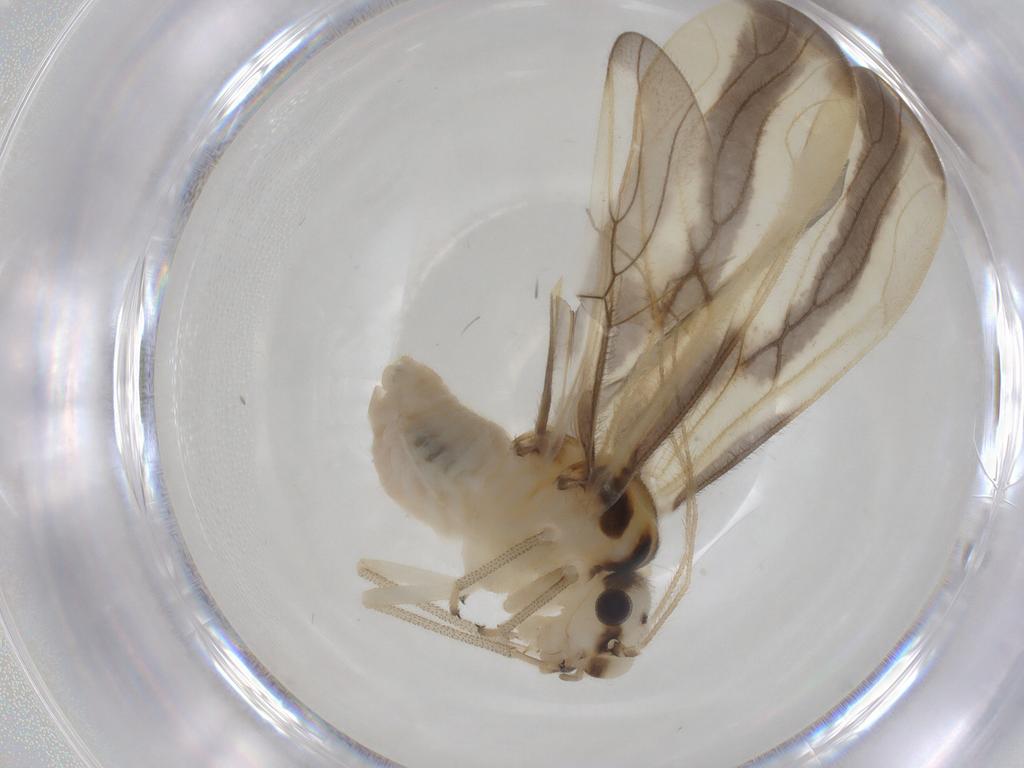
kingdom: Animalia
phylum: Arthropoda
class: Insecta
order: Psocodea
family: Amphipsocidae
